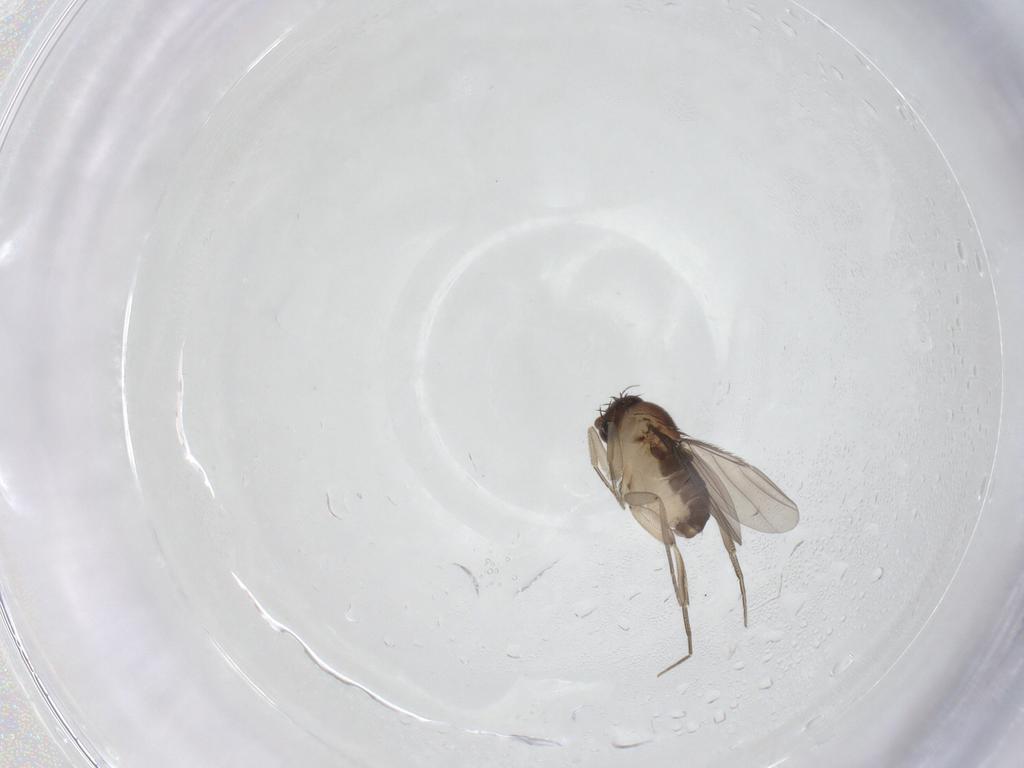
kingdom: Animalia
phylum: Arthropoda
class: Insecta
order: Diptera
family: Phoridae
